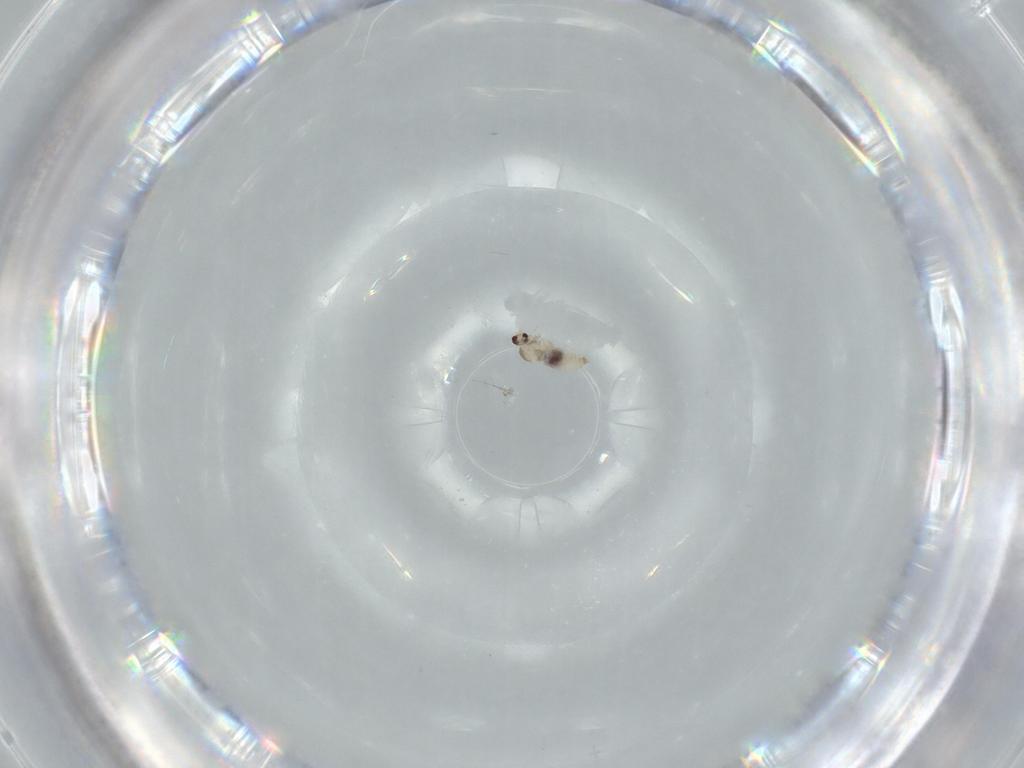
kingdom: Animalia
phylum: Arthropoda
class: Insecta
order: Diptera
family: Cecidomyiidae
